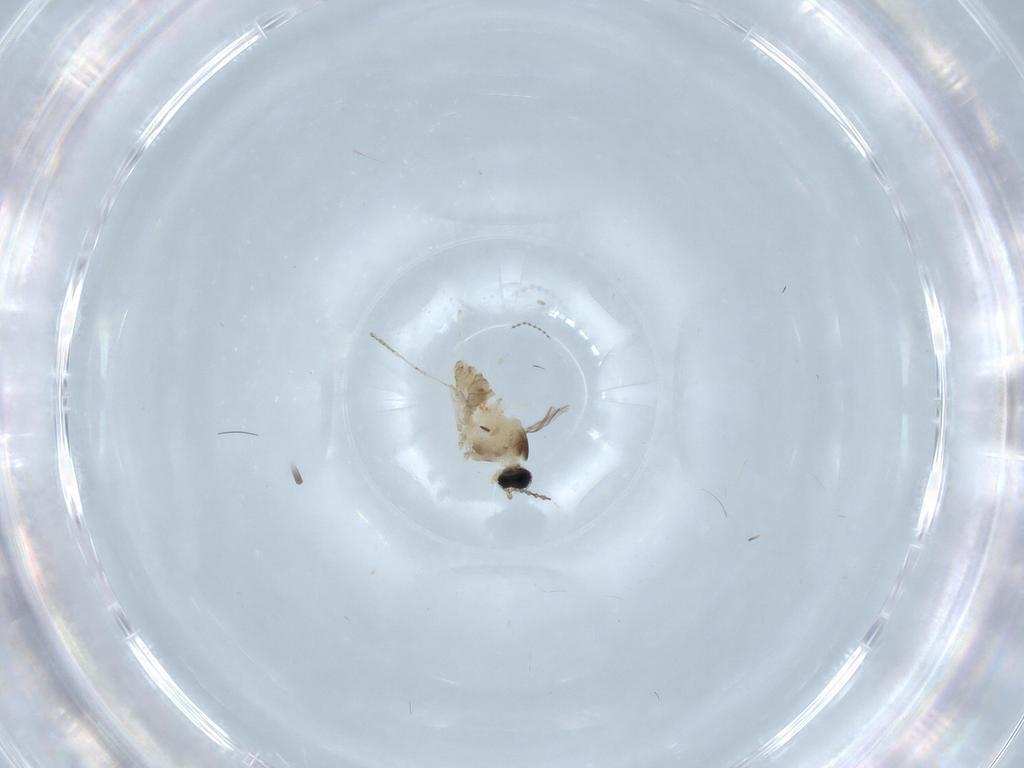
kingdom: Animalia
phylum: Arthropoda
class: Insecta
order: Diptera
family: Cecidomyiidae
